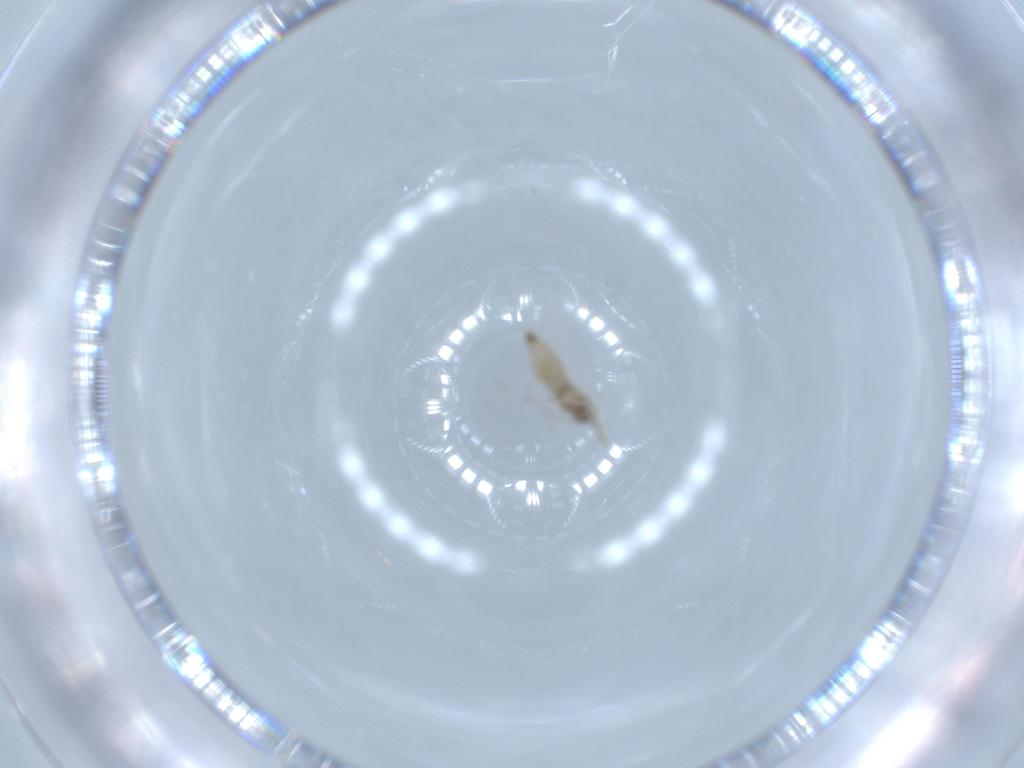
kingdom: Animalia
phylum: Arthropoda
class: Insecta
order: Diptera
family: Cecidomyiidae
